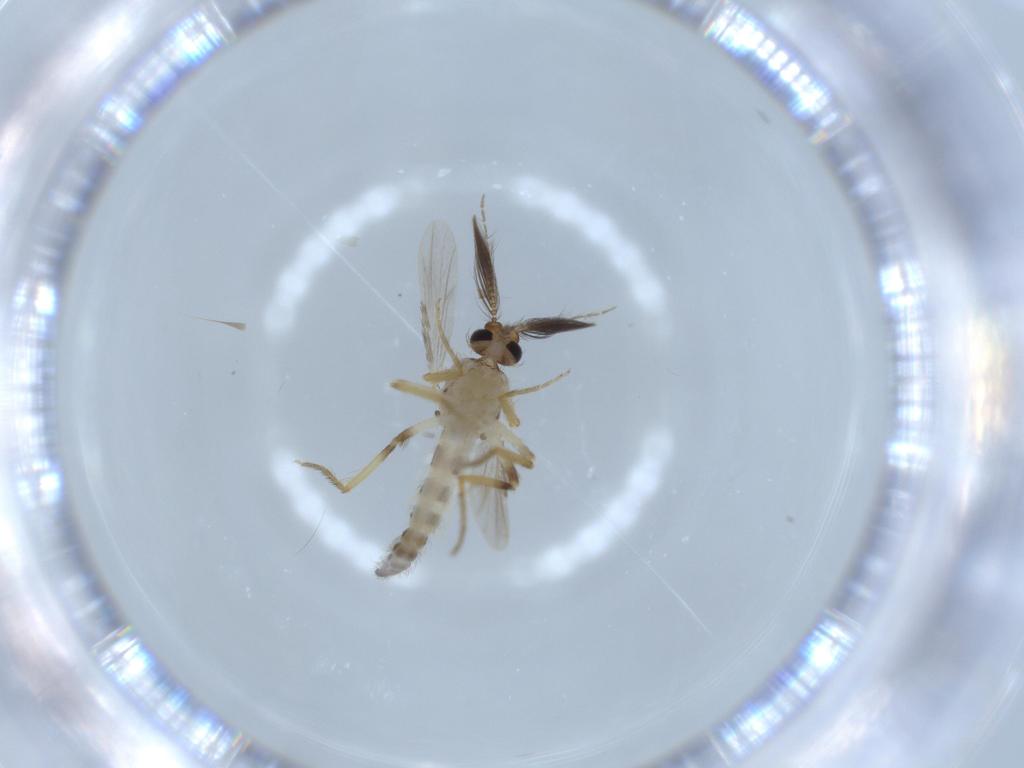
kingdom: Animalia
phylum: Arthropoda
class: Insecta
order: Diptera
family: Ceratopogonidae
